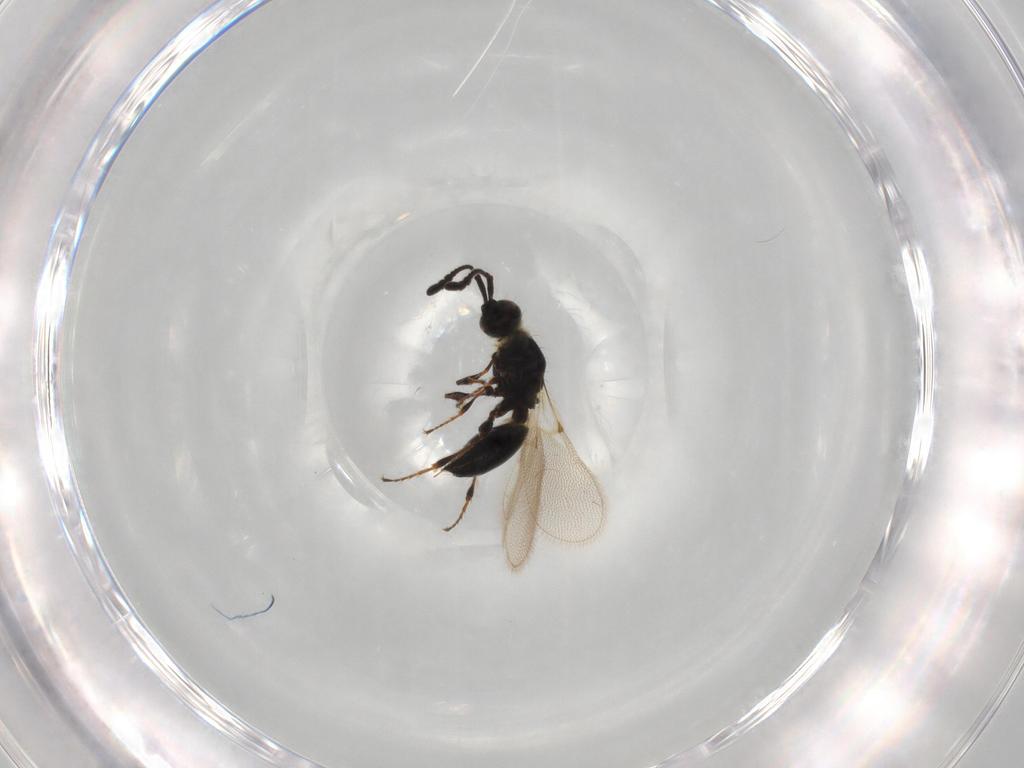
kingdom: Animalia
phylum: Arthropoda
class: Insecta
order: Hymenoptera
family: Diapriidae
